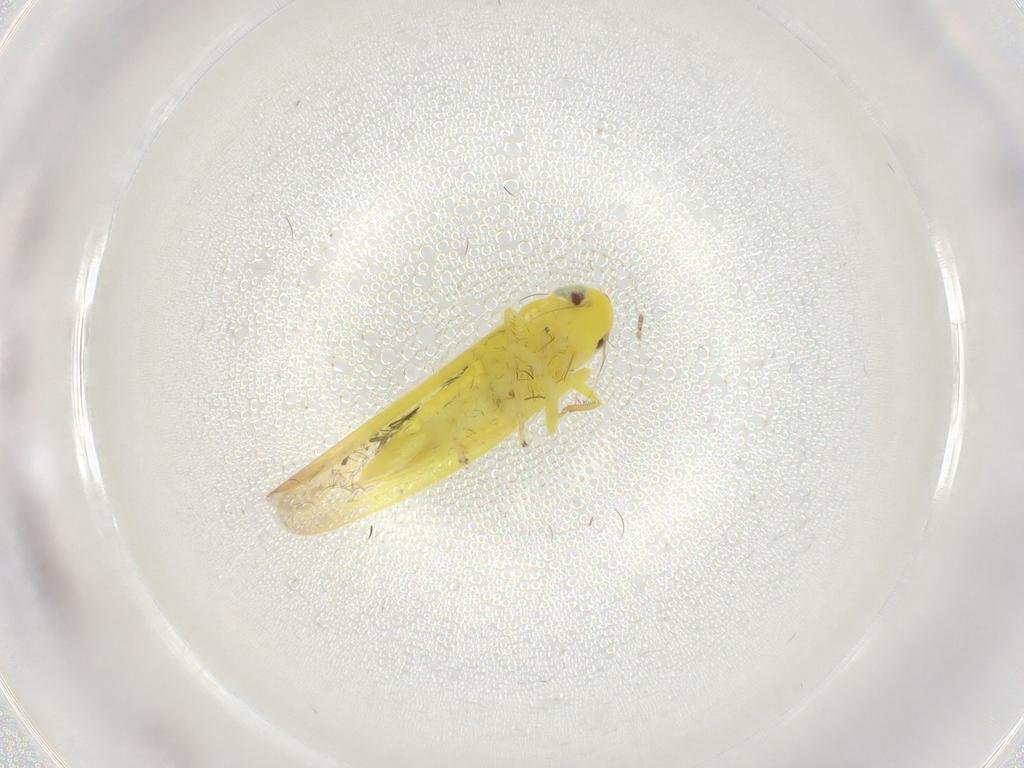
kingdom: Animalia
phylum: Arthropoda
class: Insecta
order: Hemiptera
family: Cicadellidae
